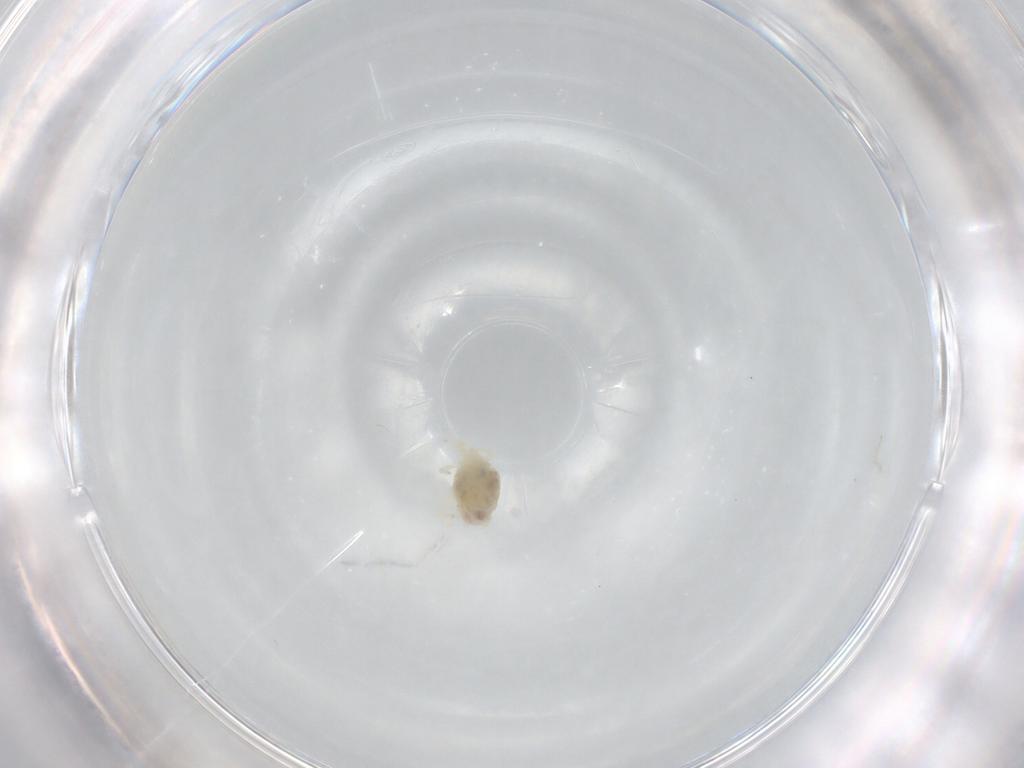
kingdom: Animalia
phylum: Arthropoda
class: Arachnida
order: Trombidiformes
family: Bdellidae
